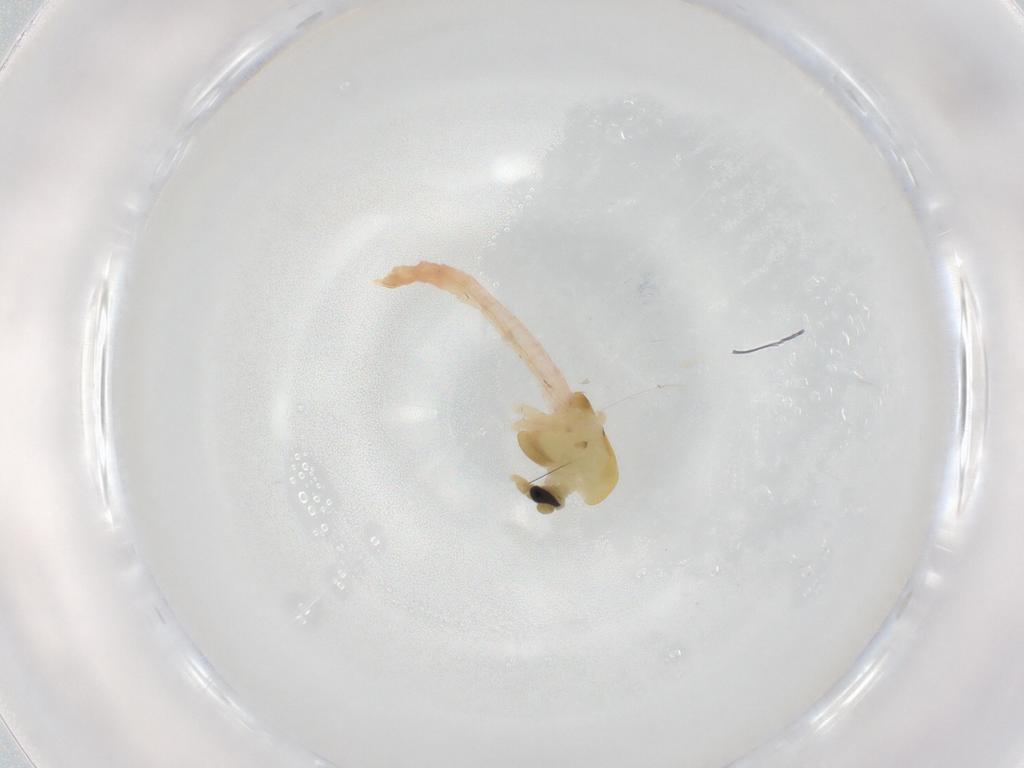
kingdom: Animalia
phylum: Arthropoda
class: Insecta
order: Diptera
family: Chironomidae
